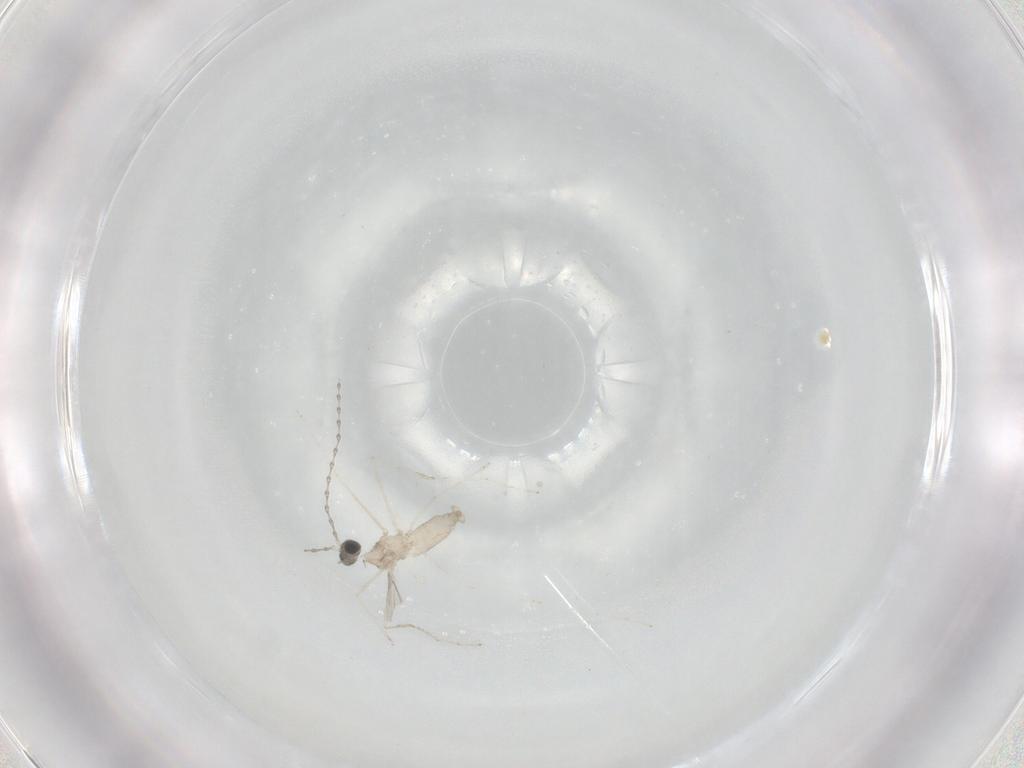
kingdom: Animalia
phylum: Arthropoda
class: Insecta
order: Diptera
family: Cecidomyiidae
